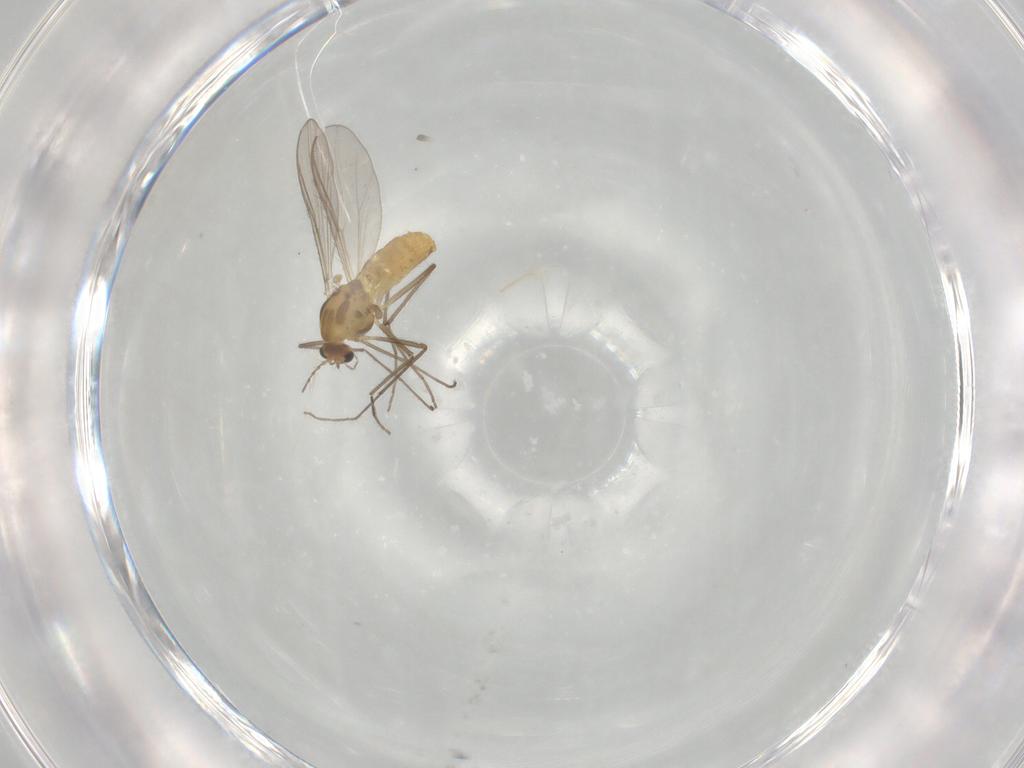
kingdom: Animalia
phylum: Arthropoda
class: Insecta
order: Diptera
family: Chironomidae
